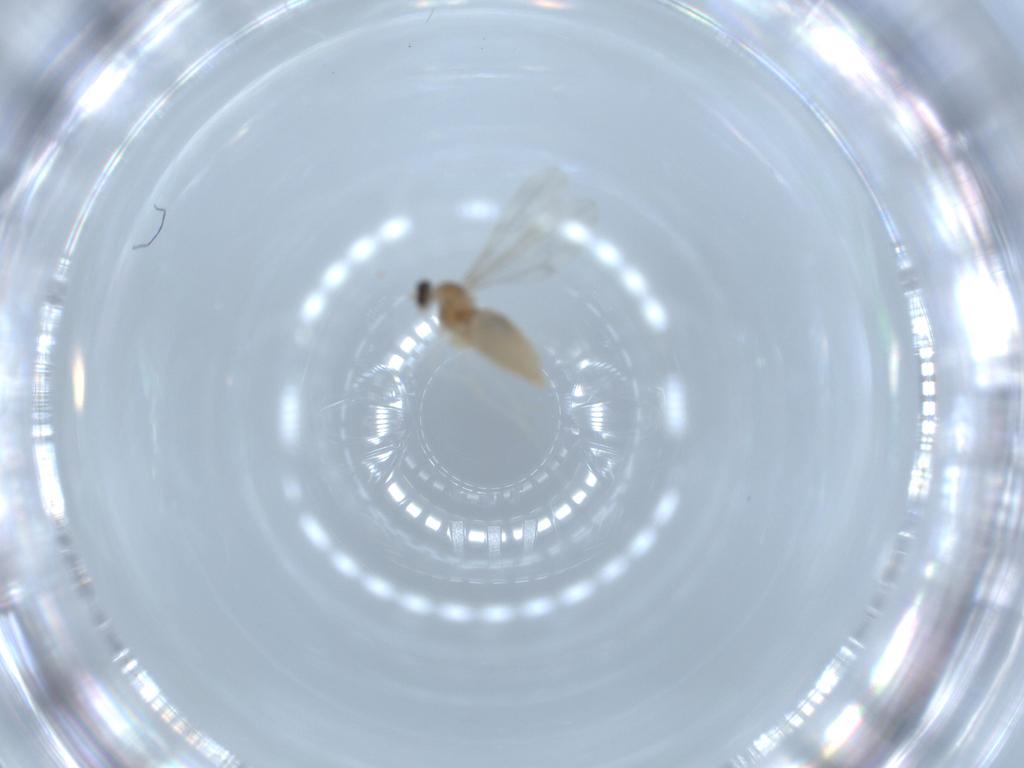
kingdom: Animalia
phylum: Arthropoda
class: Insecta
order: Diptera
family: Cecidomyiidae
